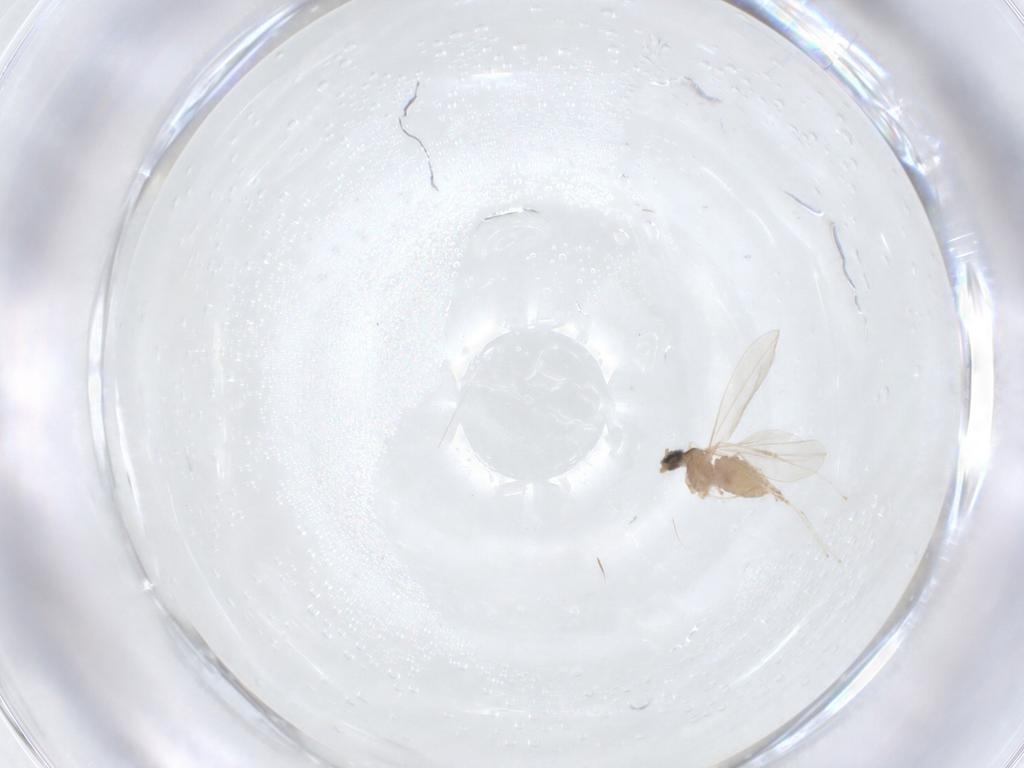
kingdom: Animalia
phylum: Arthropoda
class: Insecta
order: Diptera
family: Cecidomyiidae
